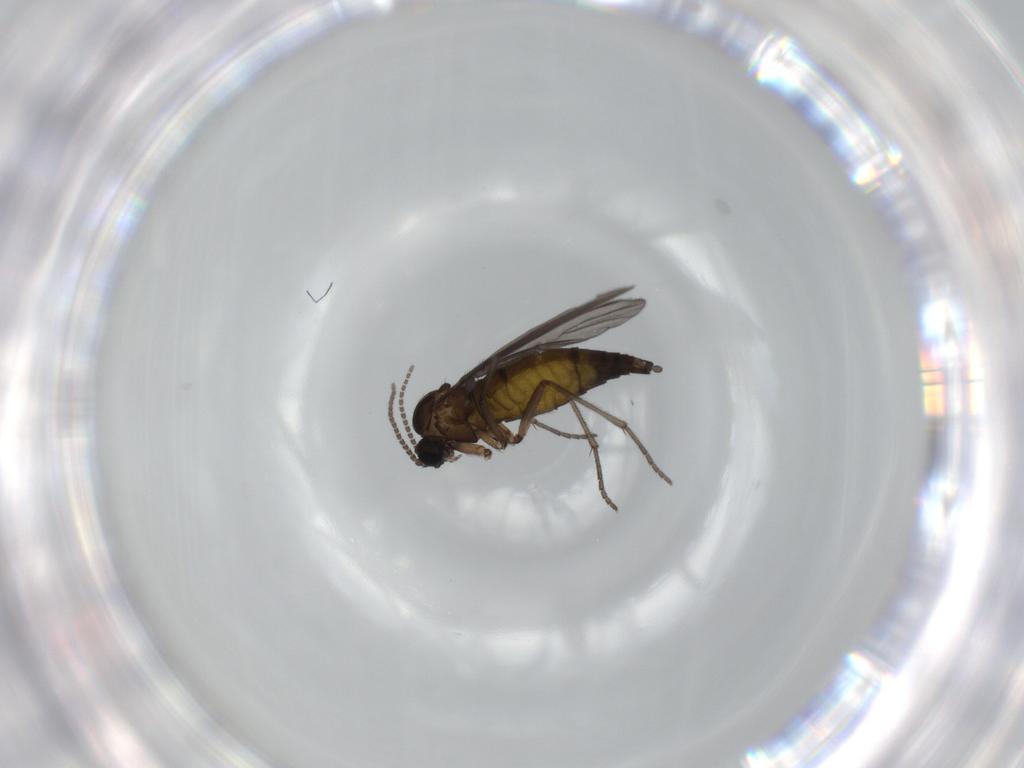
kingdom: Animalia
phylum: Arthropoda
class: Insecta
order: Diptera
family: Sciaridae
